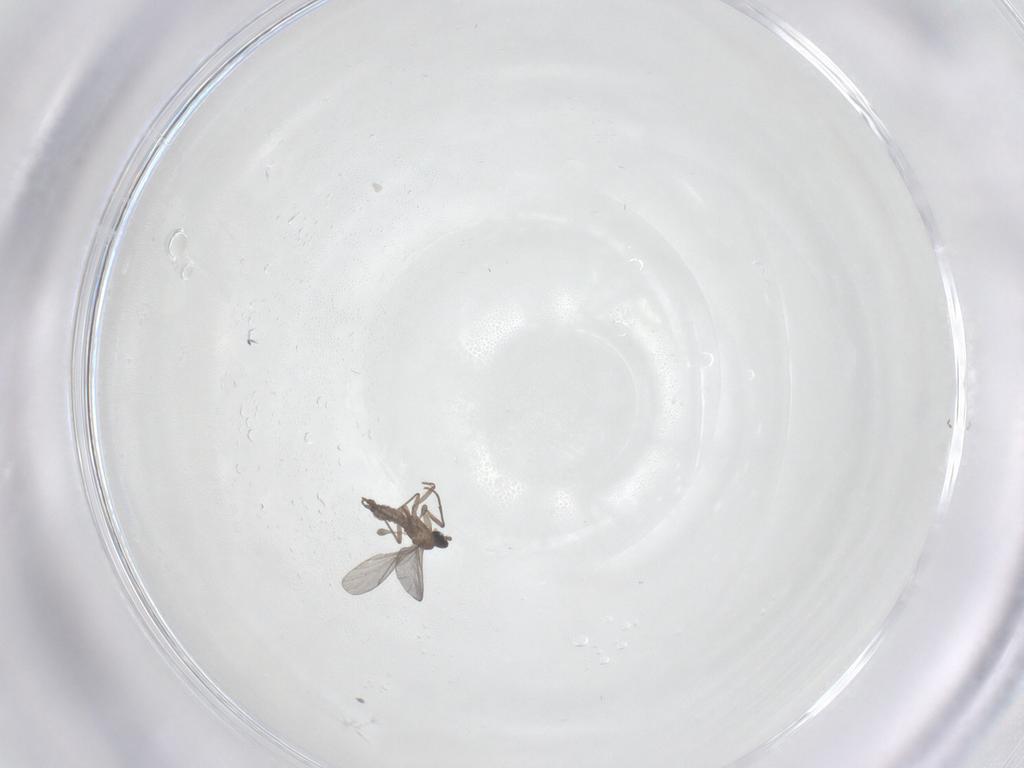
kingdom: Animalia
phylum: Arthropoda
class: Insecta
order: Diptera
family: Sciaridae
